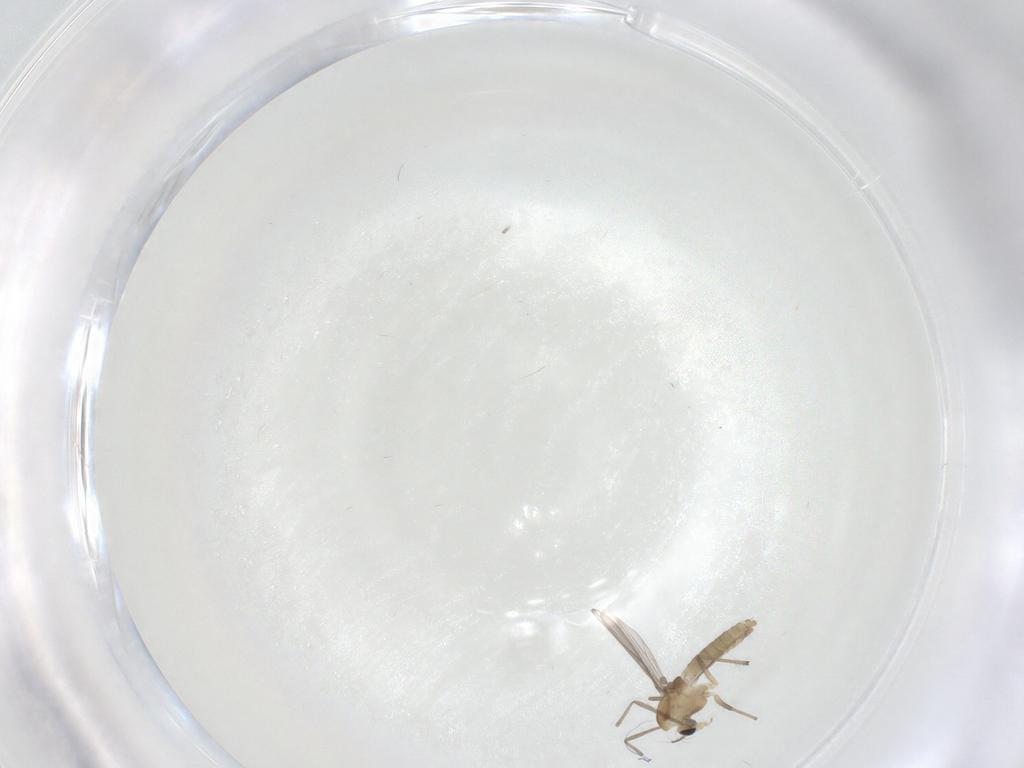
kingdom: Animalia
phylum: Arthropoda
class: Insecta
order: Diptera
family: Chironomidae
